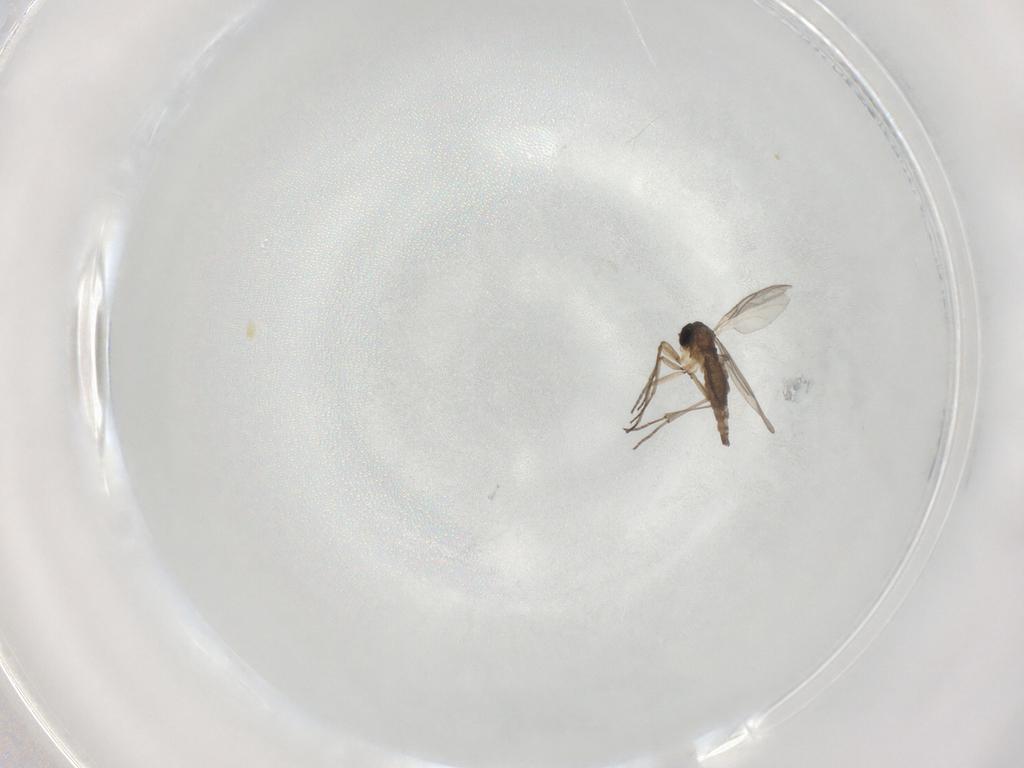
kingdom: Animalia
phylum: Arthropoda
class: Insecta
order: Diptera
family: Sciaridae
